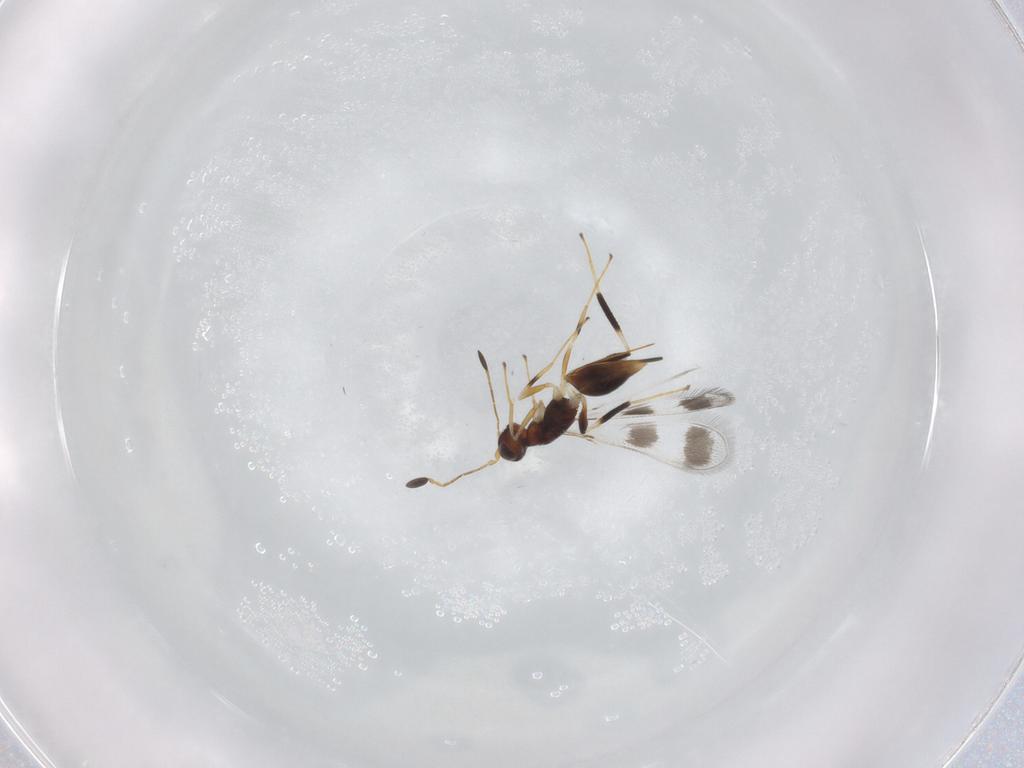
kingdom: Animalia
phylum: Arthropoda
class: Insecta
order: Hymenoptera
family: Mymaridae
